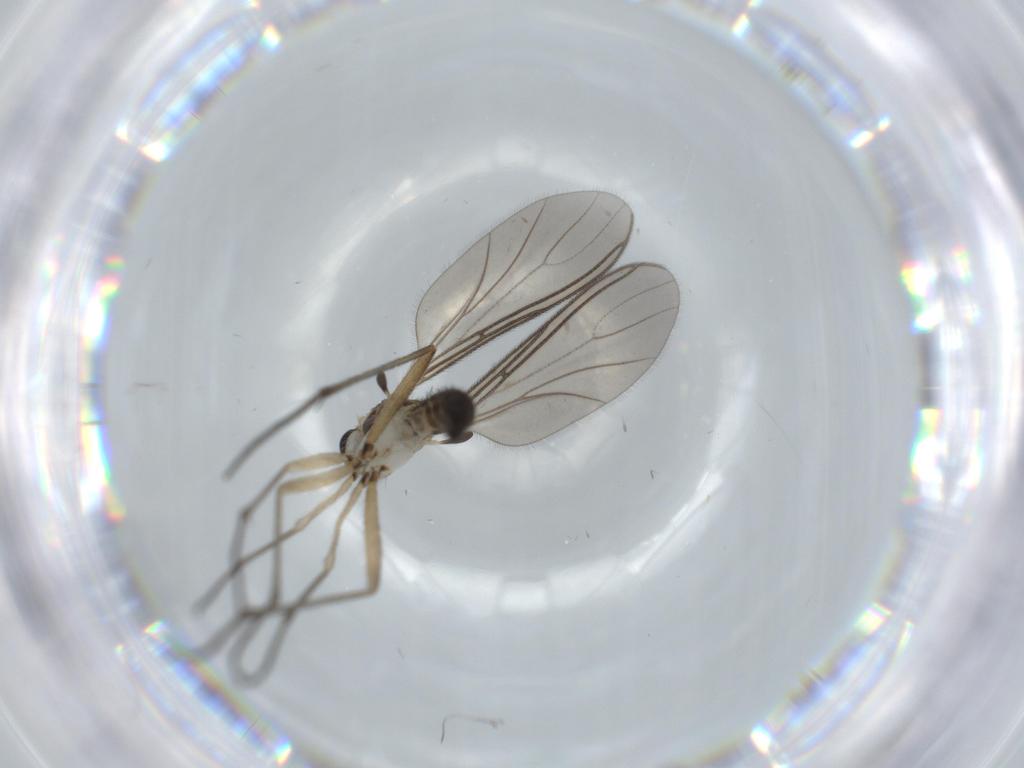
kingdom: Animalia
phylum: Arthropoda
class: Insecta
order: Diptera
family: Sciaridae
